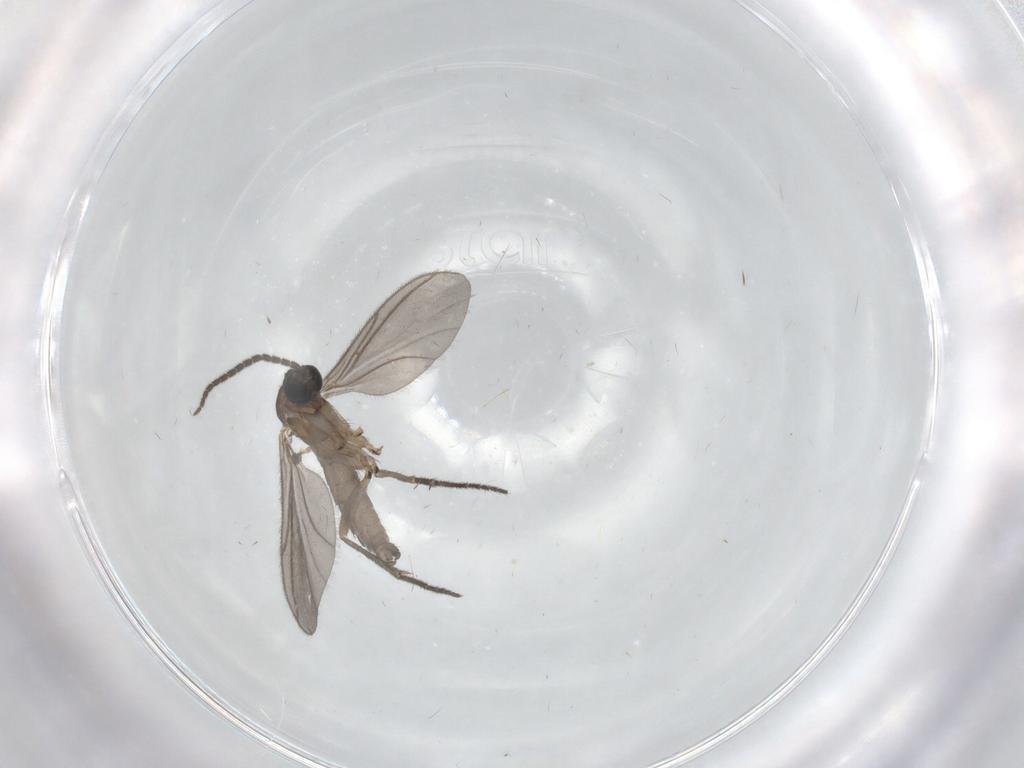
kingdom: Animalia
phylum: Arthropoda
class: Insecta
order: Diptera
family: Sciaridae
